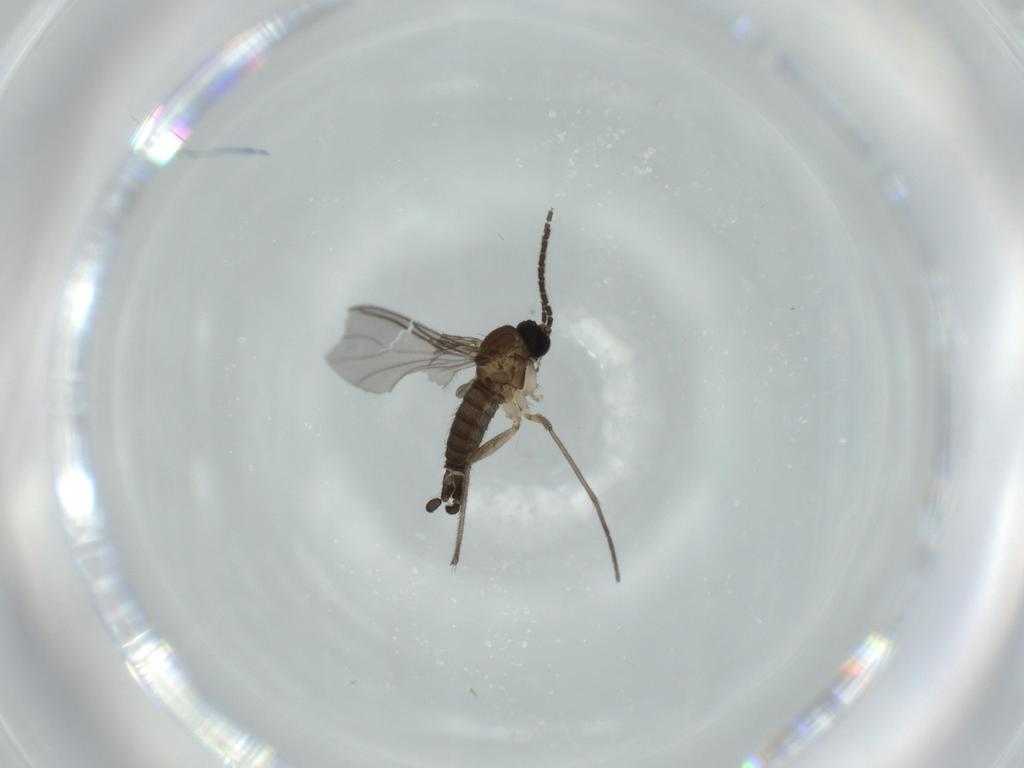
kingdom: Animalia
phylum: Arthropoda
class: Insecta
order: Diptera
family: Sciaridae
